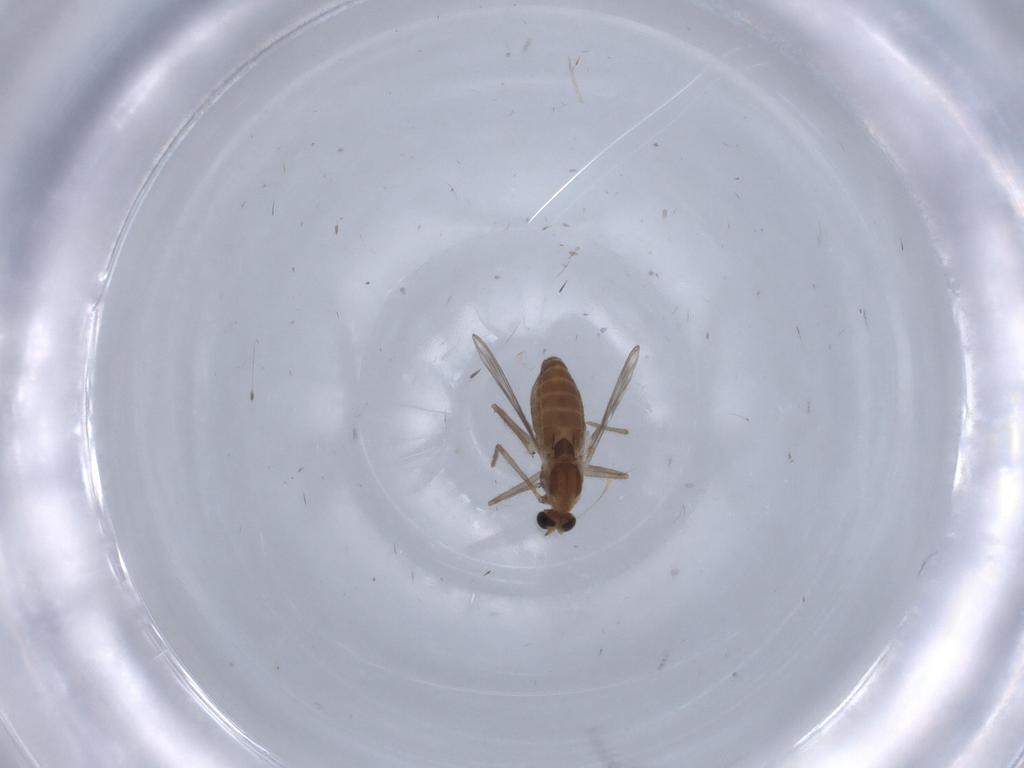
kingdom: Animalia
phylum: Arthropoda
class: Insecta
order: Diptera
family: Chironomidae
